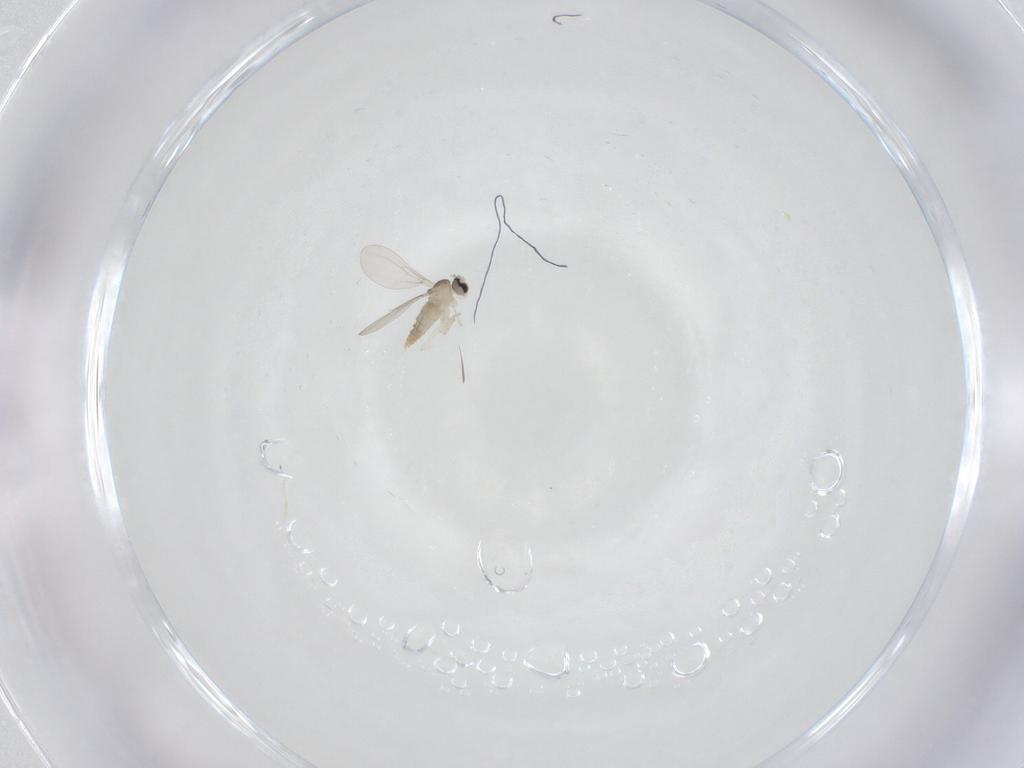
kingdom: Animalia
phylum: Arthropoda
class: Insecta
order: Diptera
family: Cecidomyiidae
